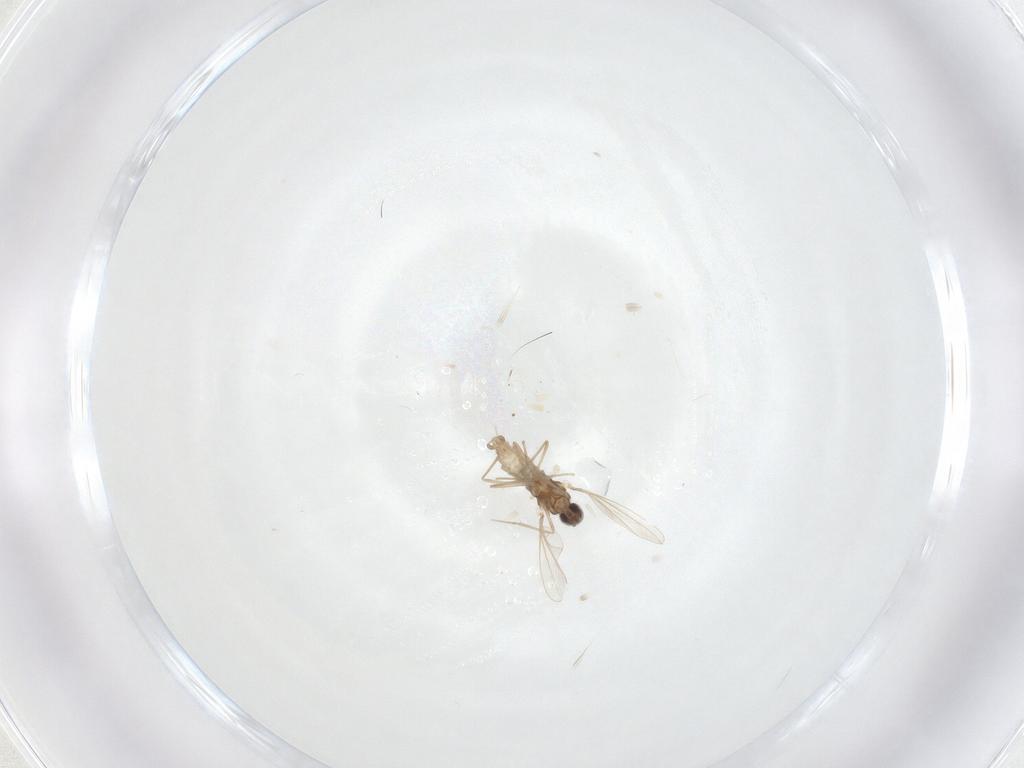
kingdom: Animalia
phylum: Arthropoda
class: Insecta
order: Diptera
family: Cecidomyiidae
